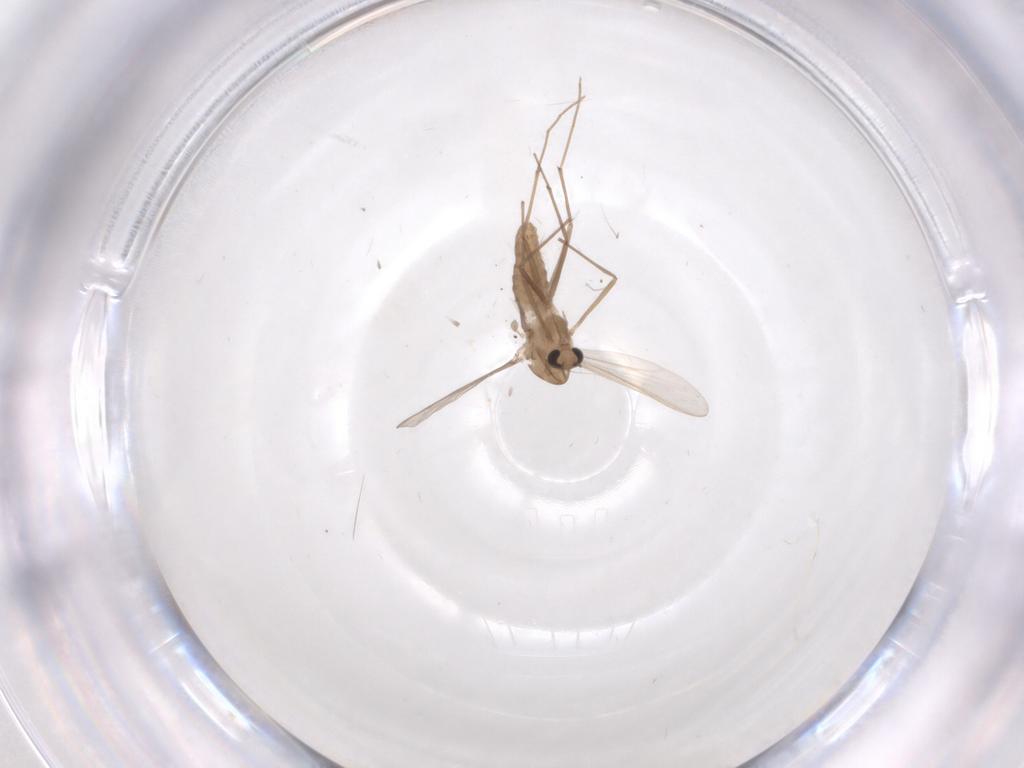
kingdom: Animalia
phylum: Arthropoda
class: Insecta
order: Diptera
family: Chironomidae
